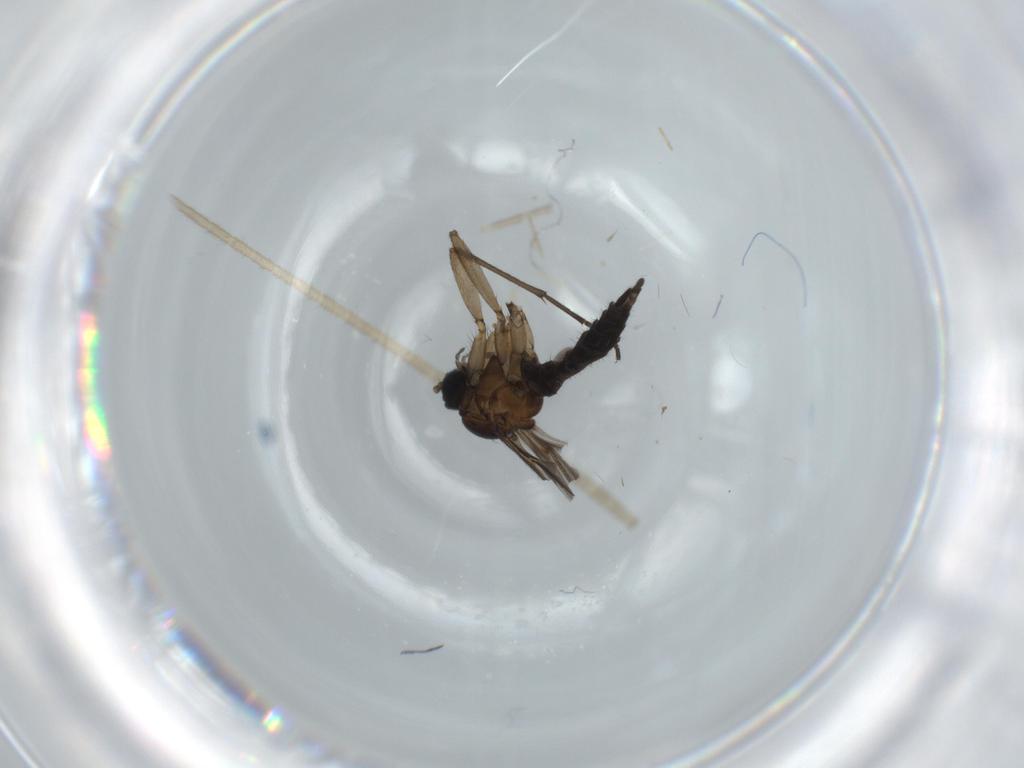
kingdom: Animalia
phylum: Arthropoda
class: Insecta
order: Diptera
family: Sciaridae
